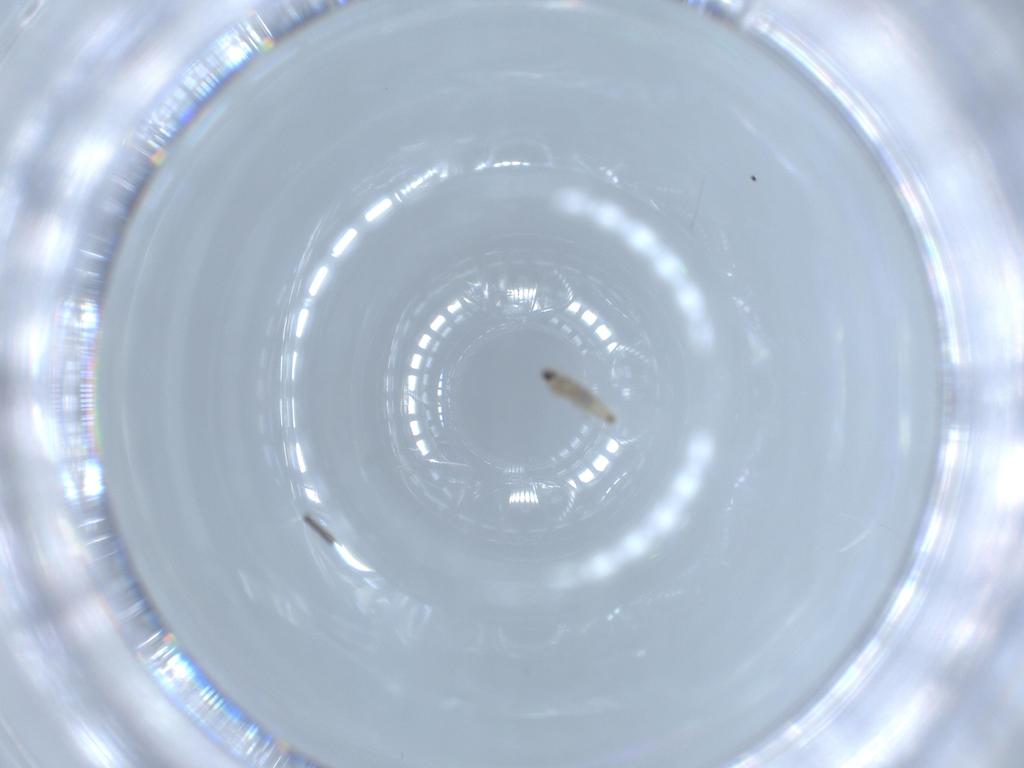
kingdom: Animalia
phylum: Arthropoda
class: Insecta
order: Diptera
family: Cecidomyiidae
